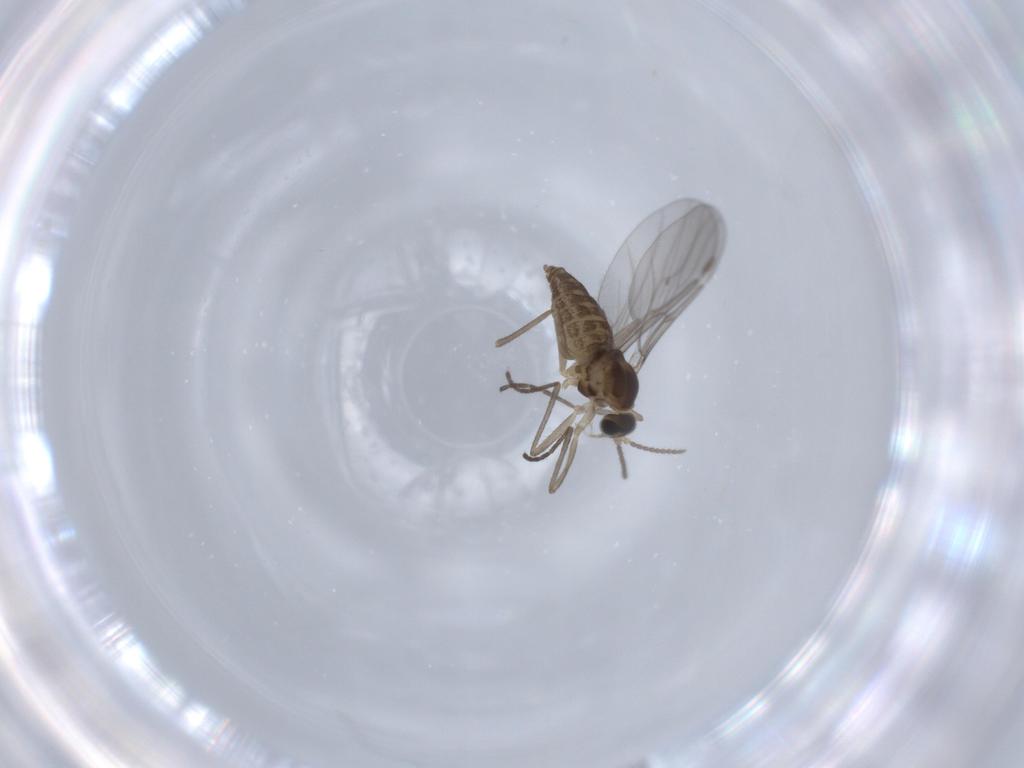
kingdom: Animalia
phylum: Arthropoda
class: Insecta
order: Diptera
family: Cecidomyiidae
